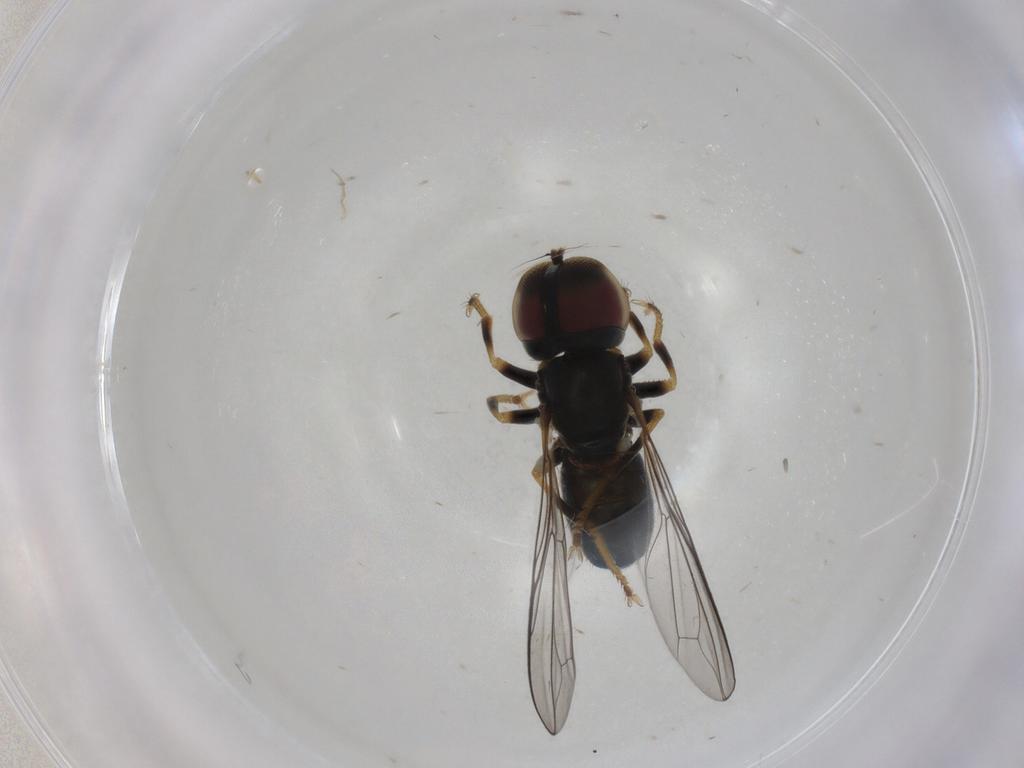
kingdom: Animalia
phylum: Arthropoda
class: Insecta
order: Diptera
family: Pipunculidae
